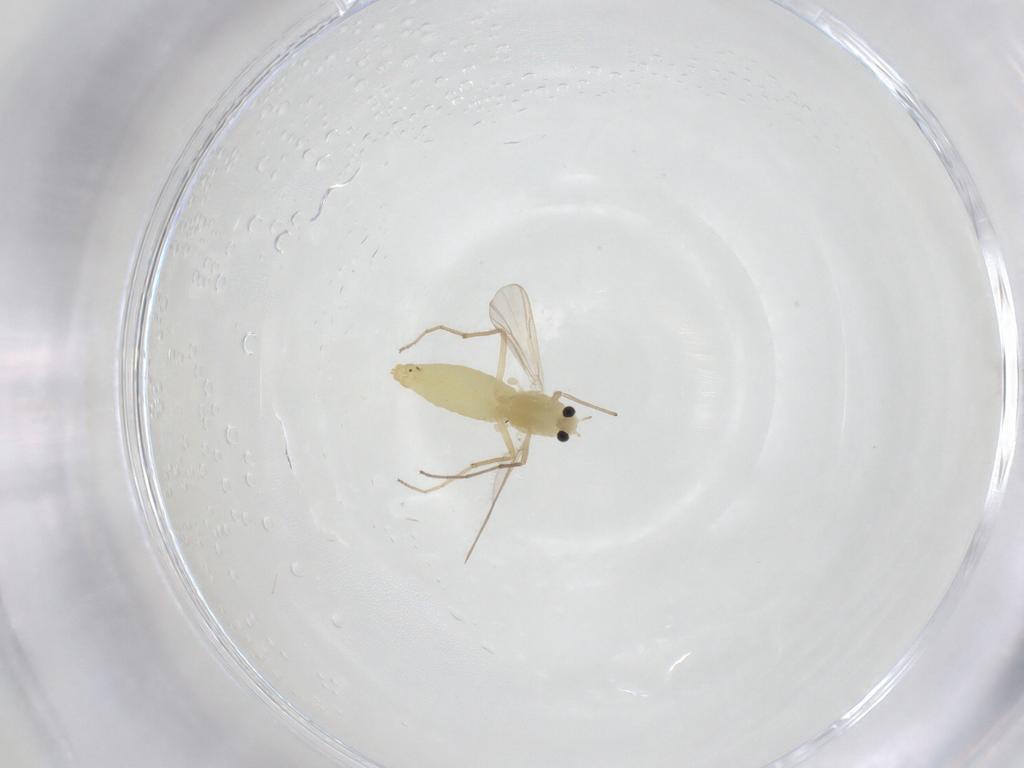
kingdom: Animalia
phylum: Arthropoda
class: Insecta
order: Diptera
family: Chironomidae
